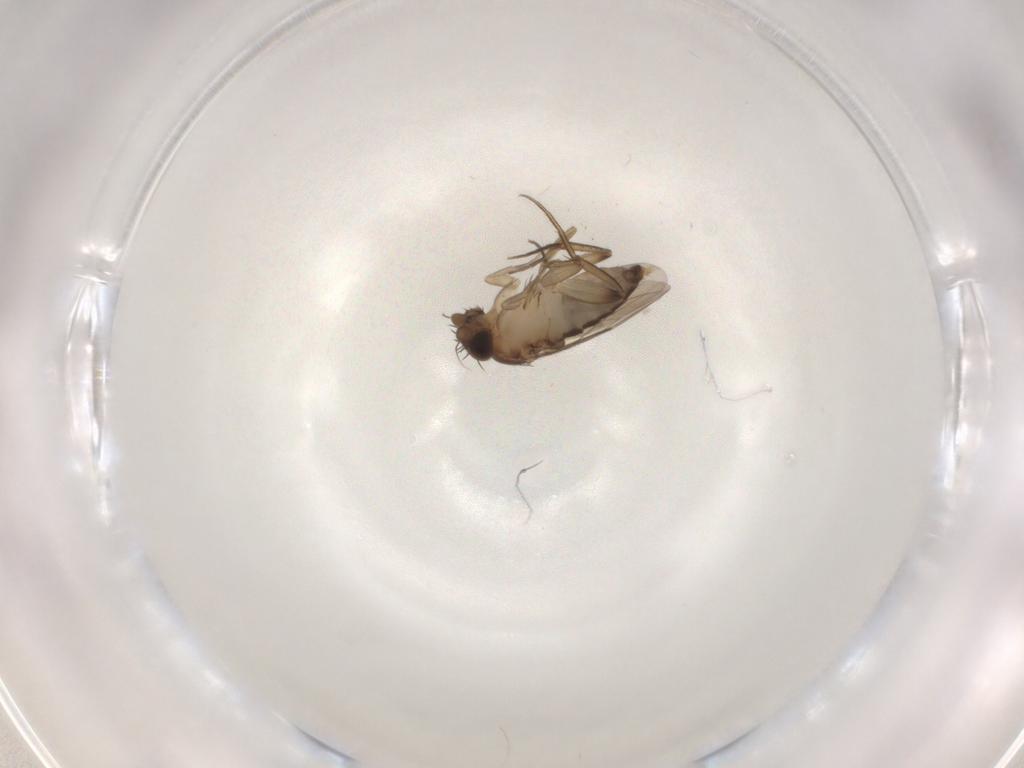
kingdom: Animalia
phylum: Arthropoda
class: Insecta
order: Diptera
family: Phoridae
